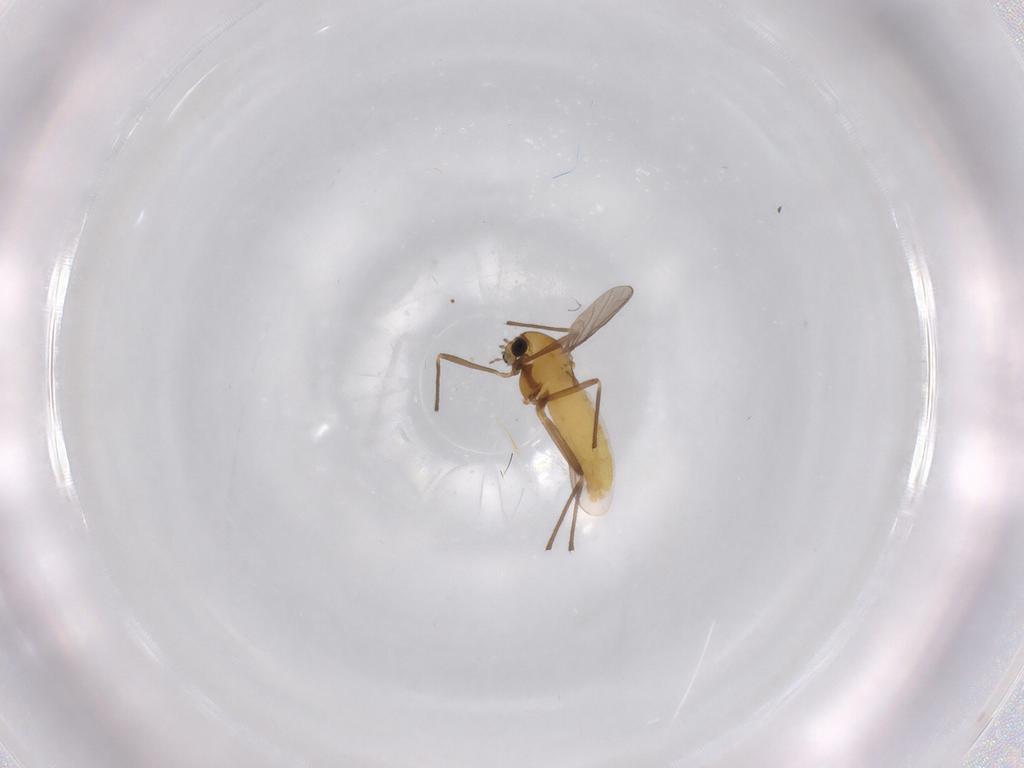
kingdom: Animalia
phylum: Arthropoda
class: Insecta
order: Diptera
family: Chironomidae
